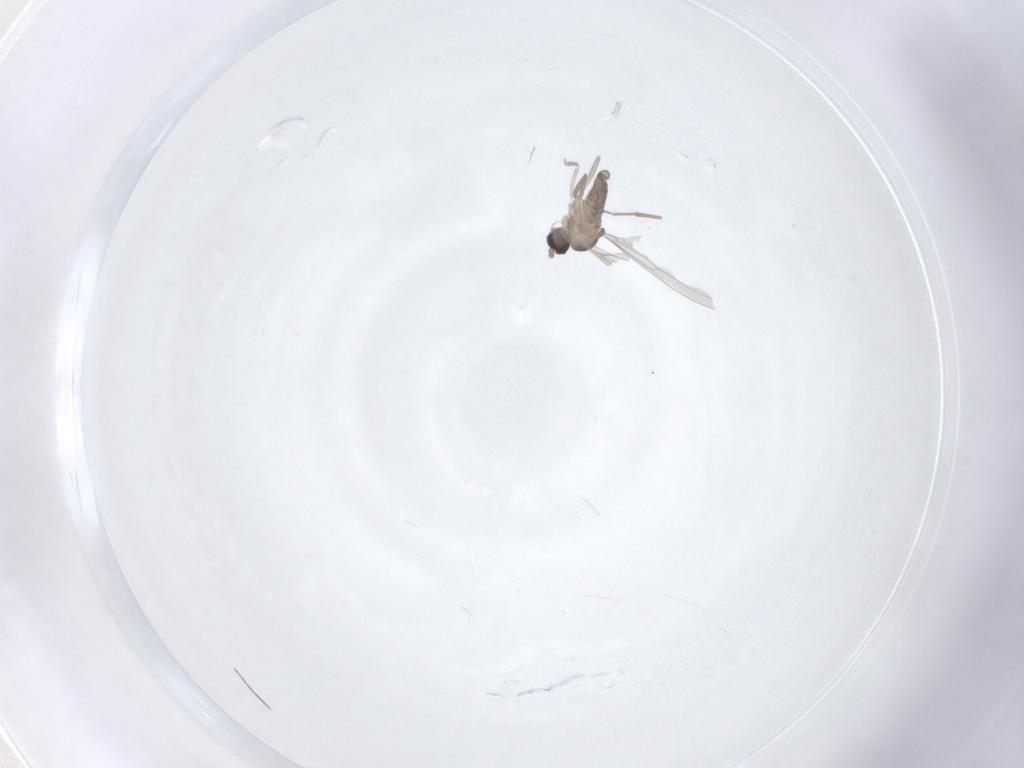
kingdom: Animalia
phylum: Arthropoda
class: Insecta
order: Diptera
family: Cecidomyiidae
